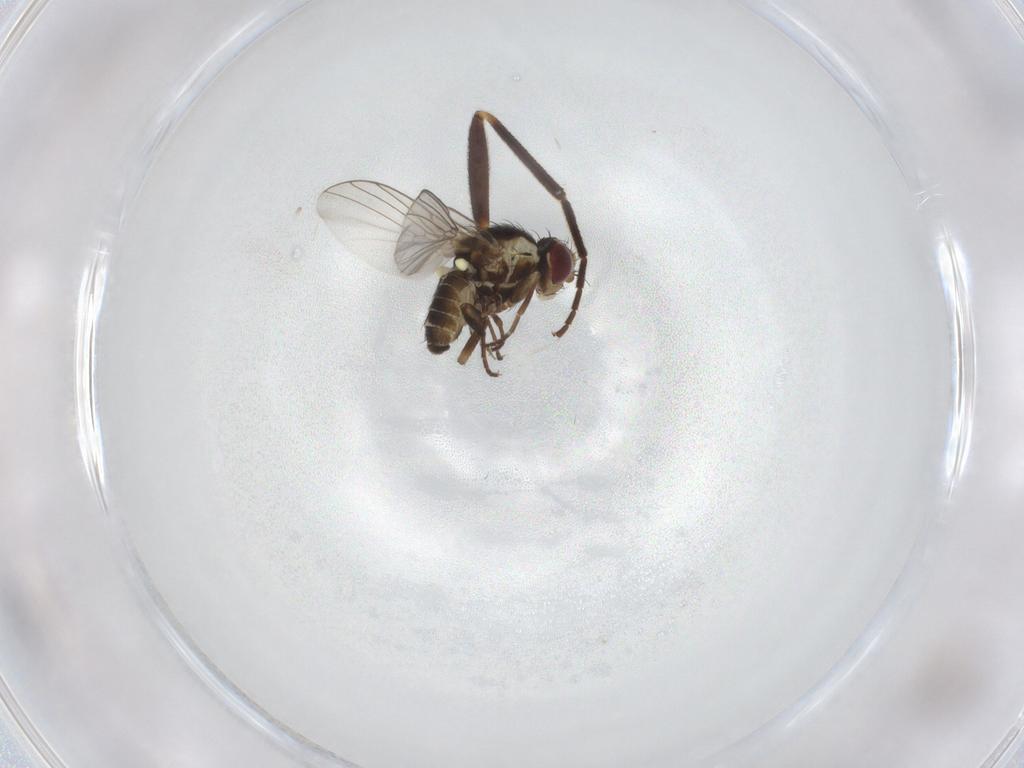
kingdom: Animalia
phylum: Arthropoda
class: Insecta
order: Diptera
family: Agromyzidae
